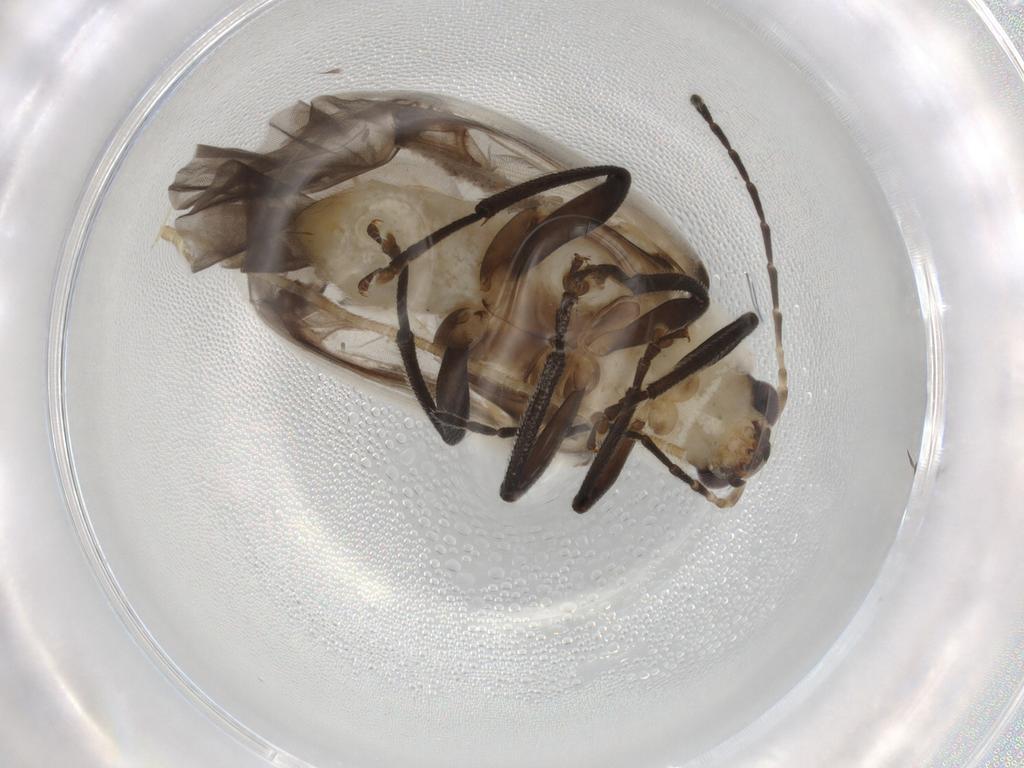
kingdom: Animalia
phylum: Arthropoda
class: Insecta
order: Coleoptera
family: Chrysomelidae
